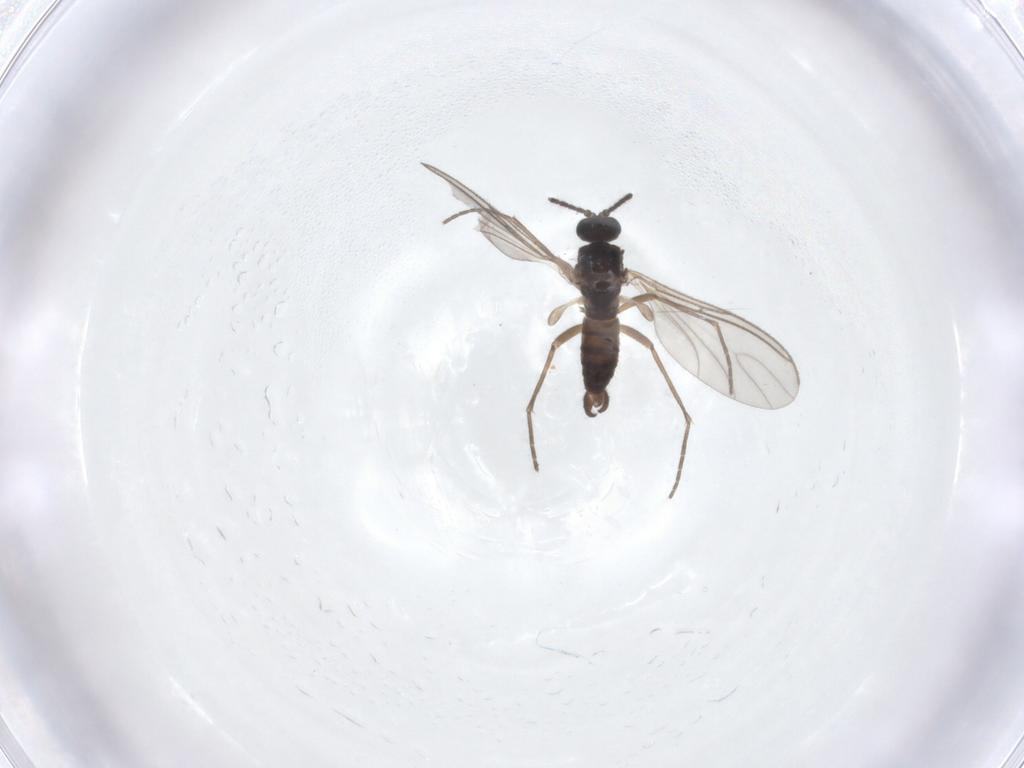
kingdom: Animalia
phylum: Arthropoda
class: Insecta
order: Diptera
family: Sciaridae
